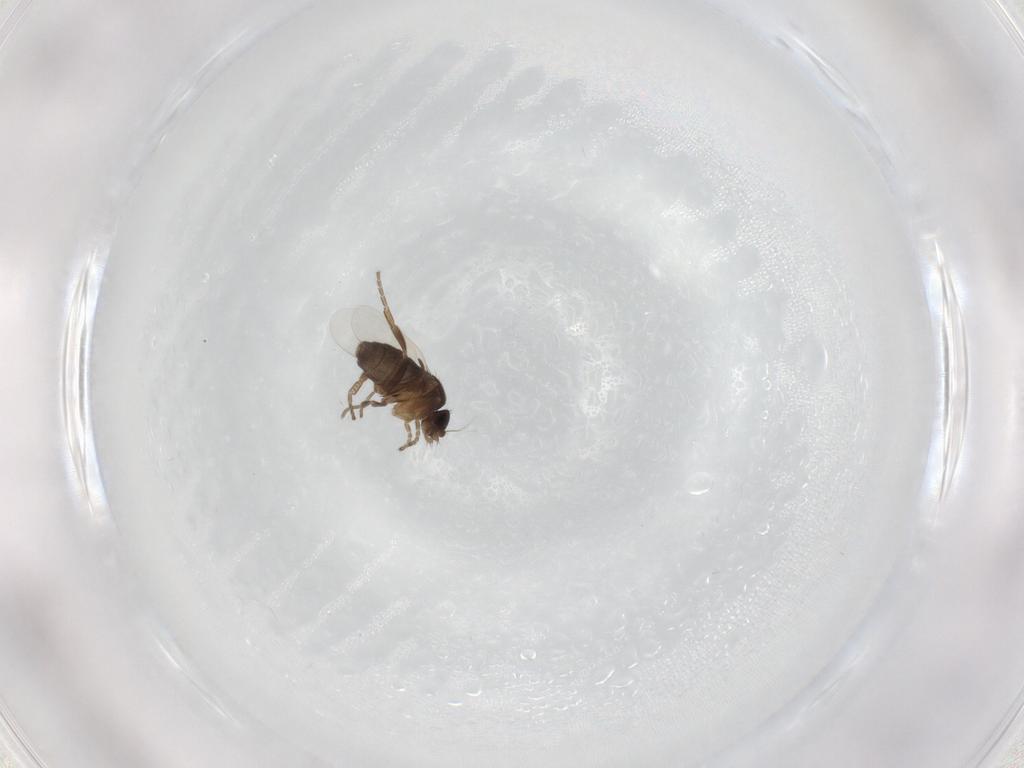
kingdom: Animalia
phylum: Arthropoda
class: Insecta
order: Diptera
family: Phoridae
